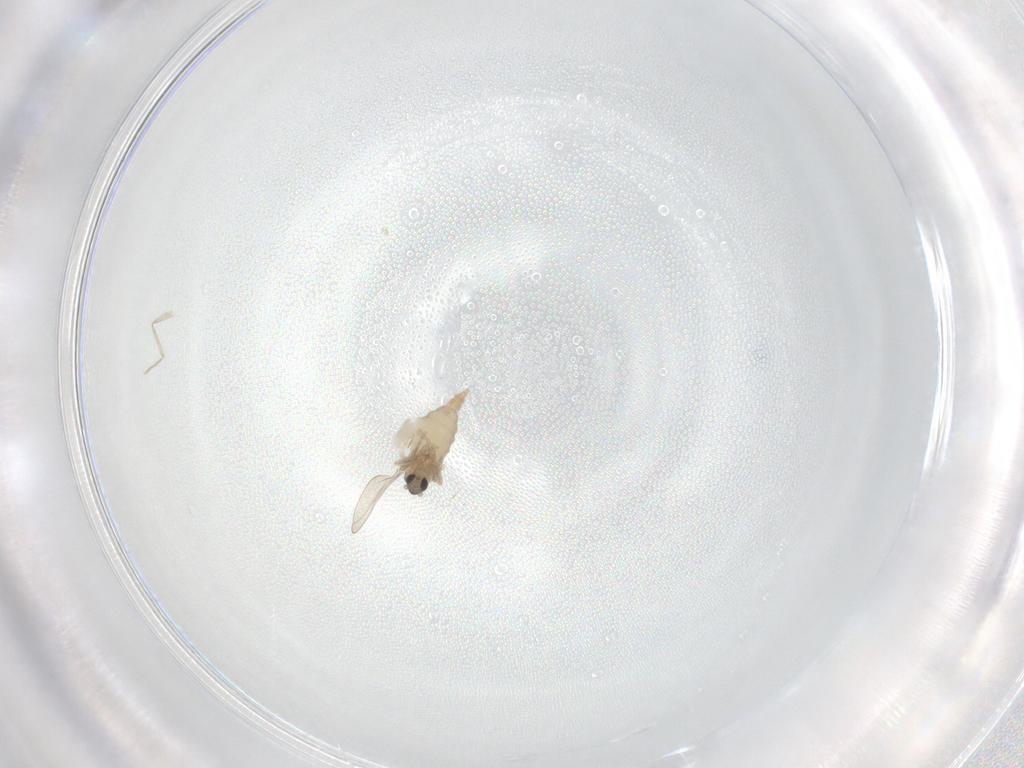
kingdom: Animalia
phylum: Arthropoda
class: Insecta
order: Diptera
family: Cecidomyiidae
